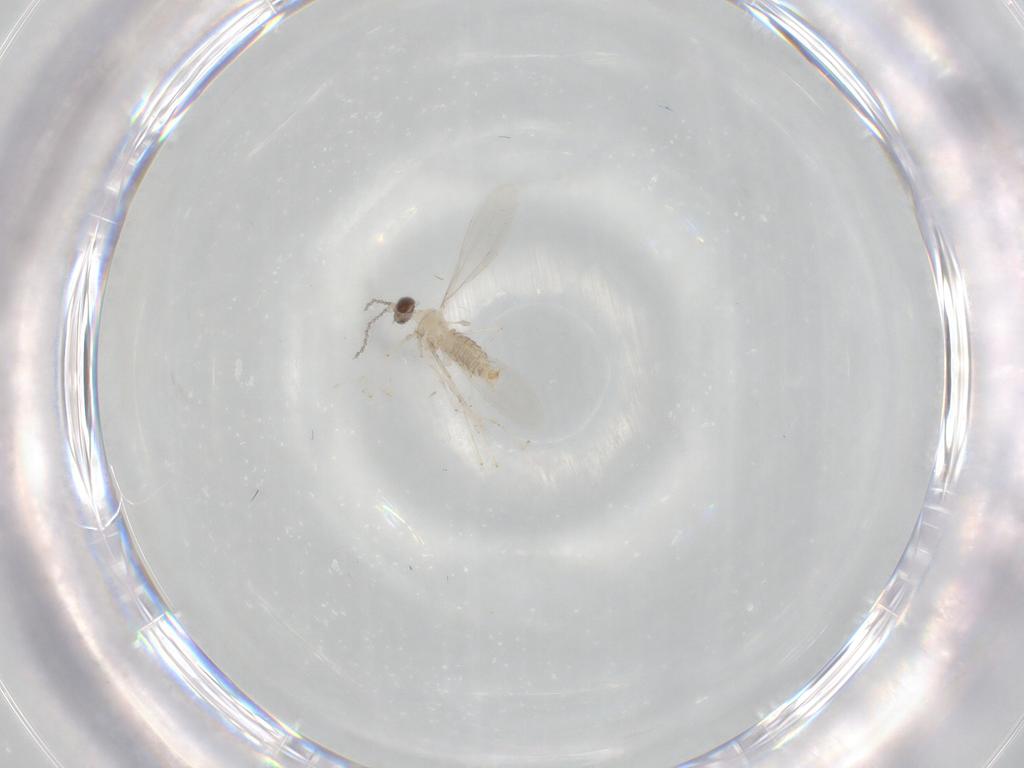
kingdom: Animalia
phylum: Arthropoda
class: Insecta
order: Diptera
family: Cecidomyiidae
